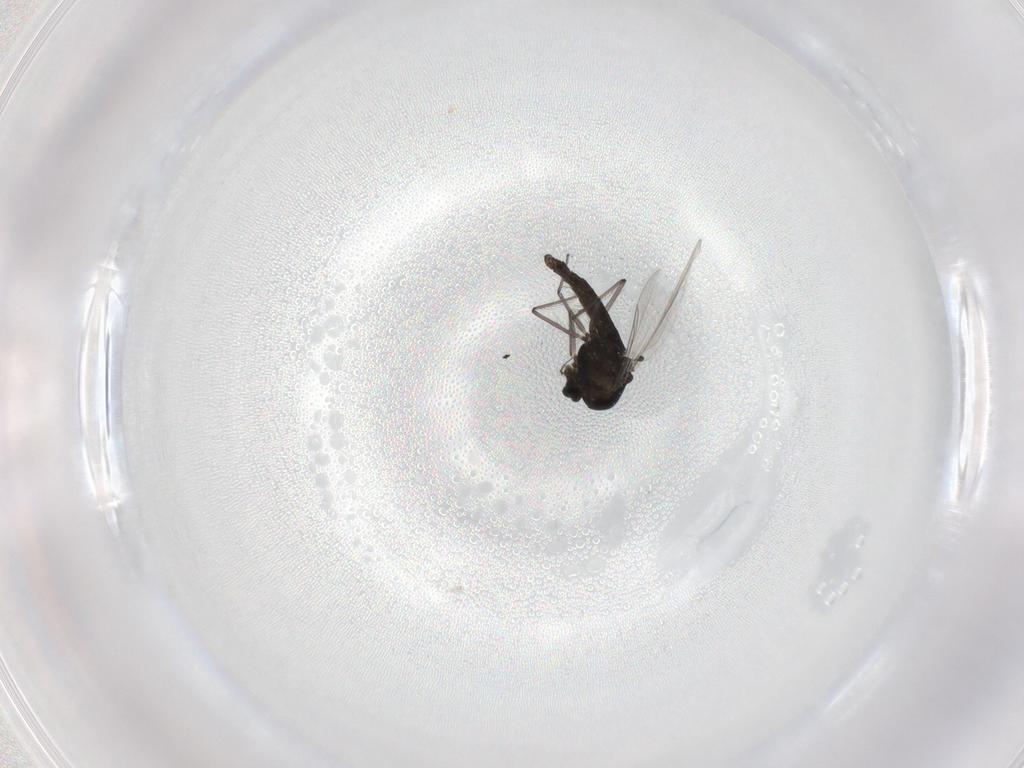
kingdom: Animalia
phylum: Arthropoda
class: Insecta
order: Diptera
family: Chironomidae
